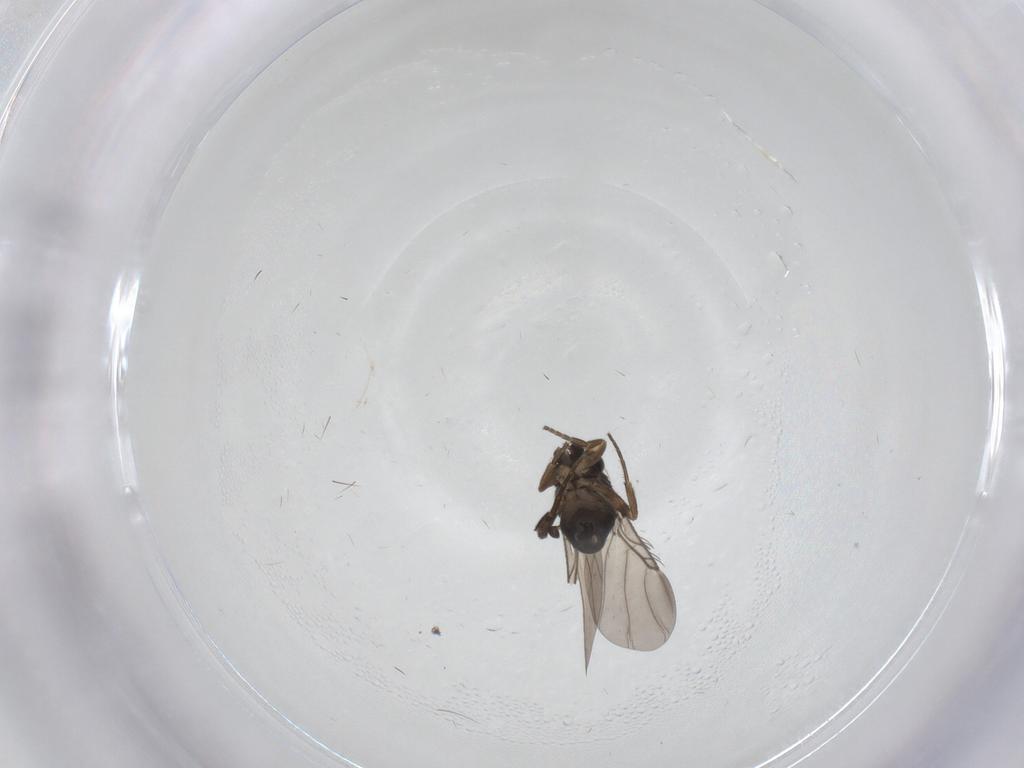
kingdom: Animalia
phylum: Arthropoda
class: Insecta
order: Diptera
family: Phoridae
